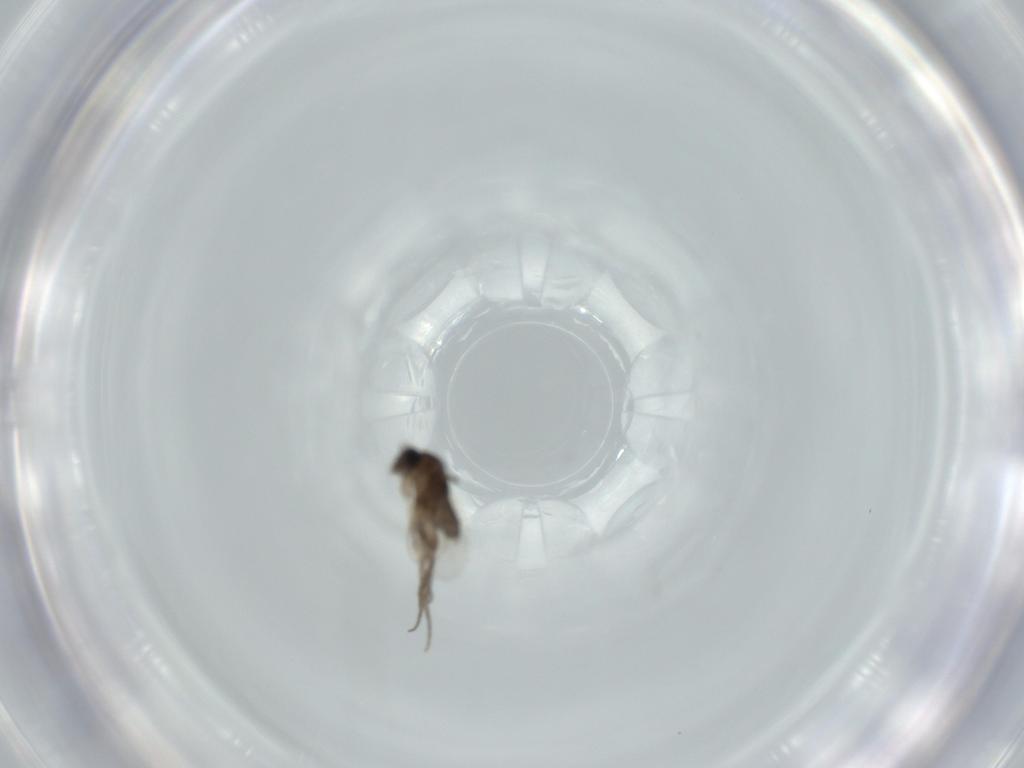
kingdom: Animalia
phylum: Arthropoda
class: Insecta
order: Diptera
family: Phoridae
